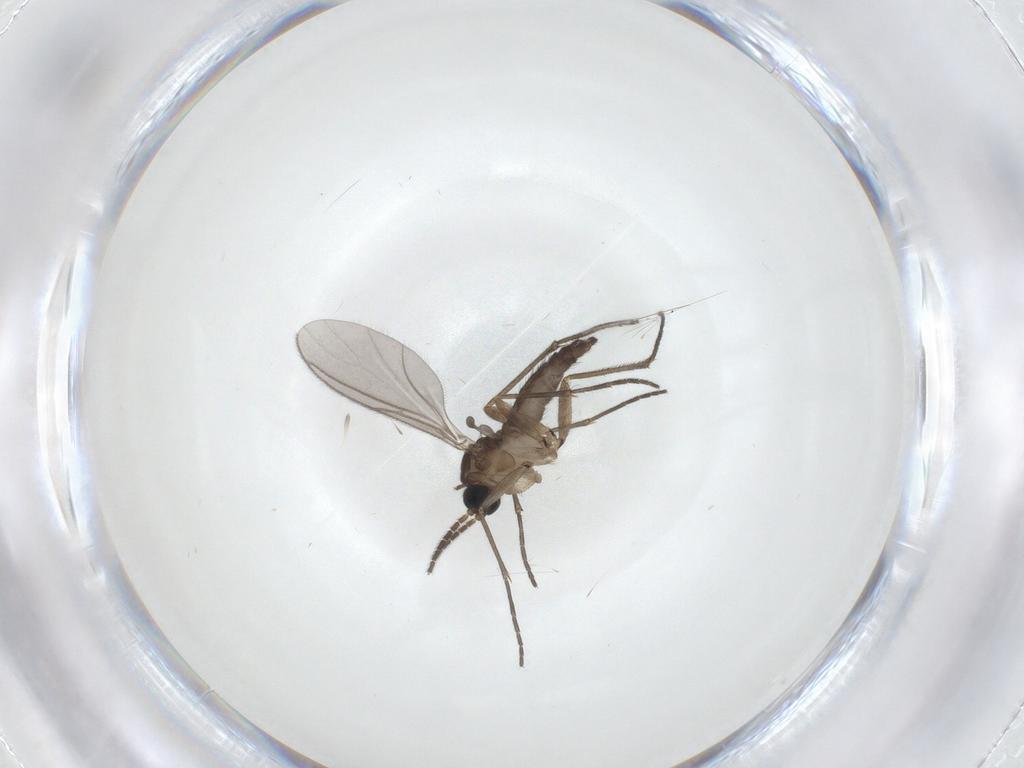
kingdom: Animalia
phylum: Arthropoda
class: Insecta
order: Diptera
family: Sciaridae
